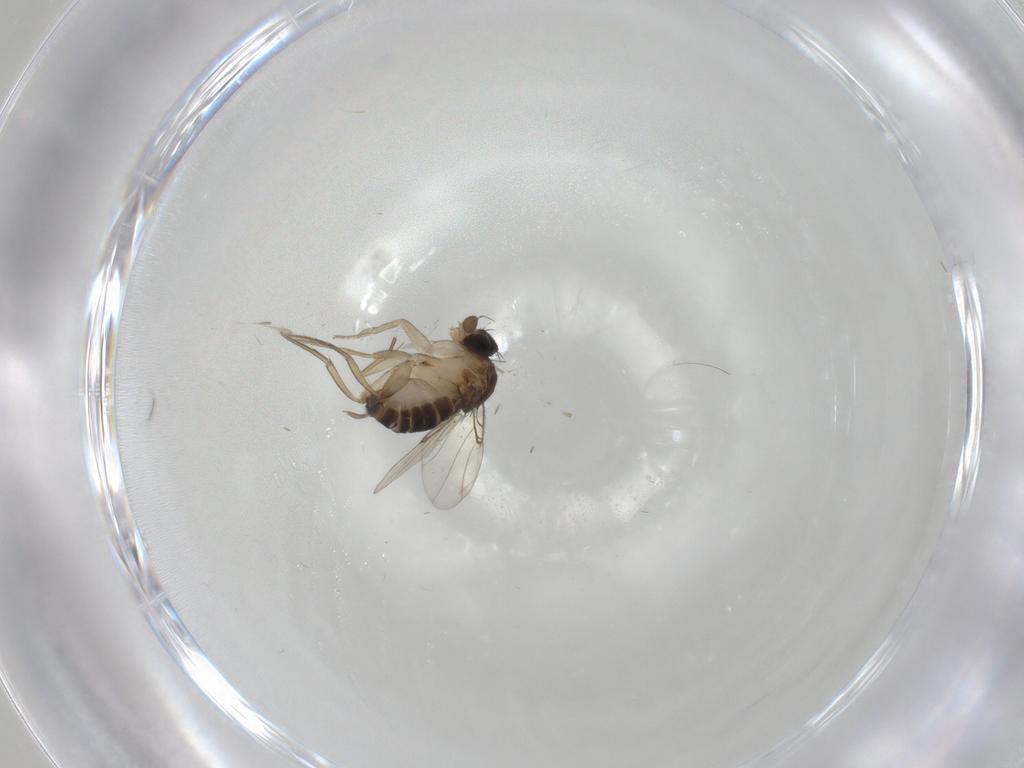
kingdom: Animalia
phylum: Arthropoda
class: Insecta
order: Diptera
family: Phoridae
